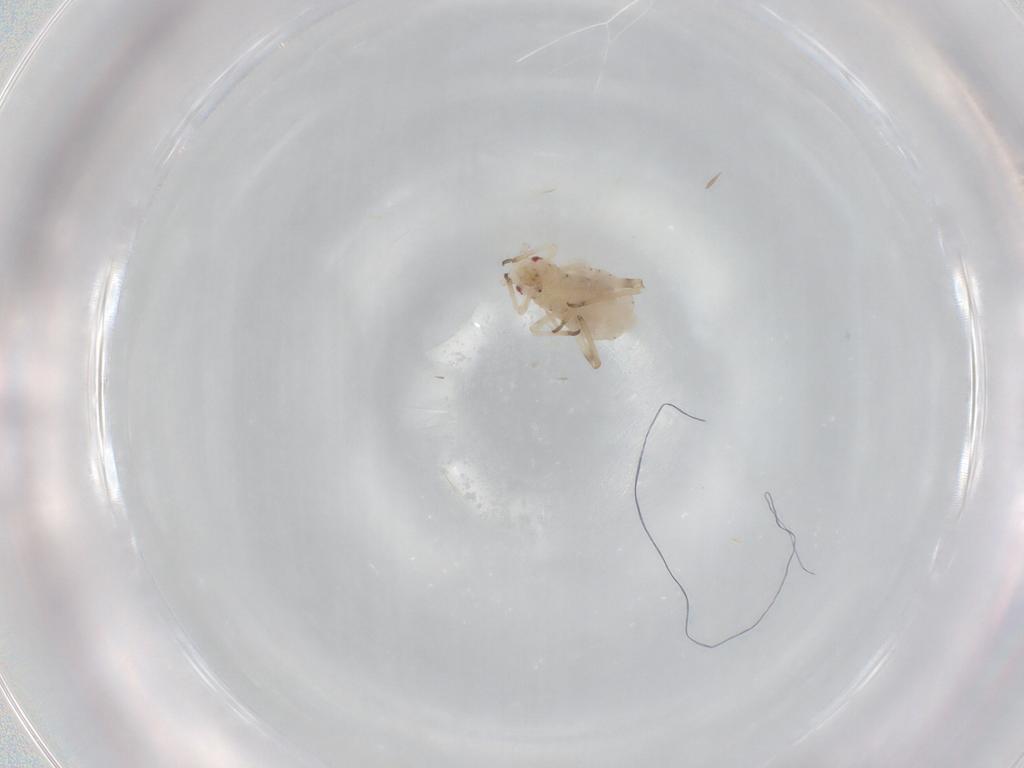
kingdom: Animalia
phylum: Arthropoda
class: Insecta
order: Hemiptera
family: Aphididae
